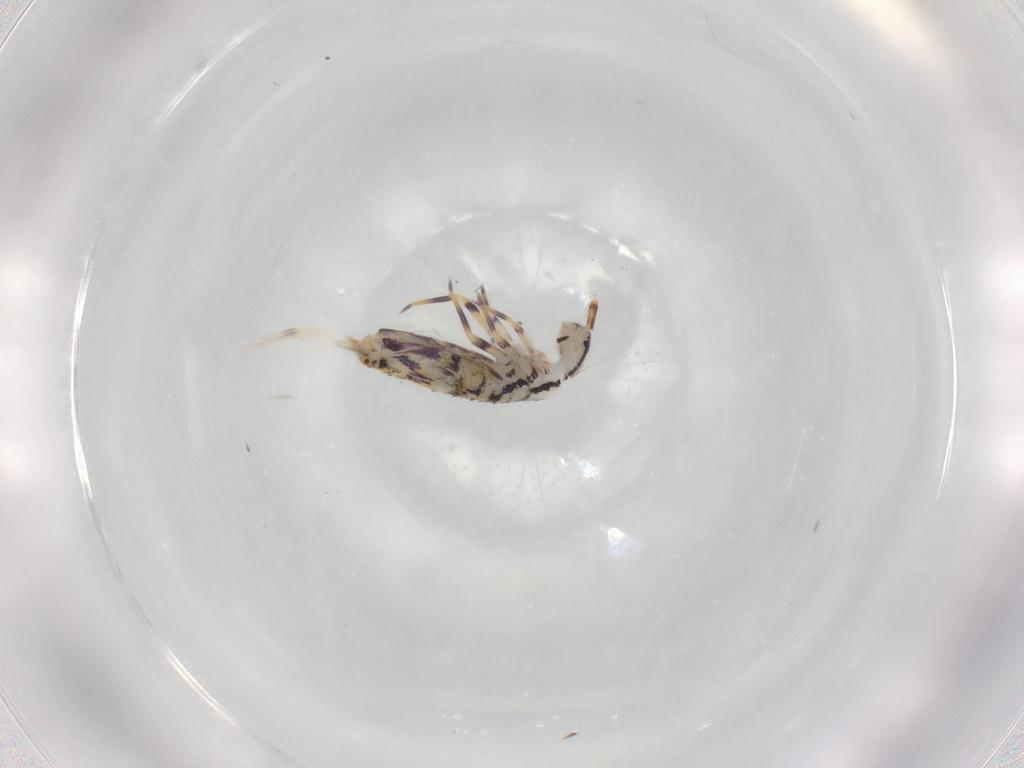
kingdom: Animalia
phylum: Arthropoda
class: Collembola
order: Entomobryomorpha
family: Entomobryidae
